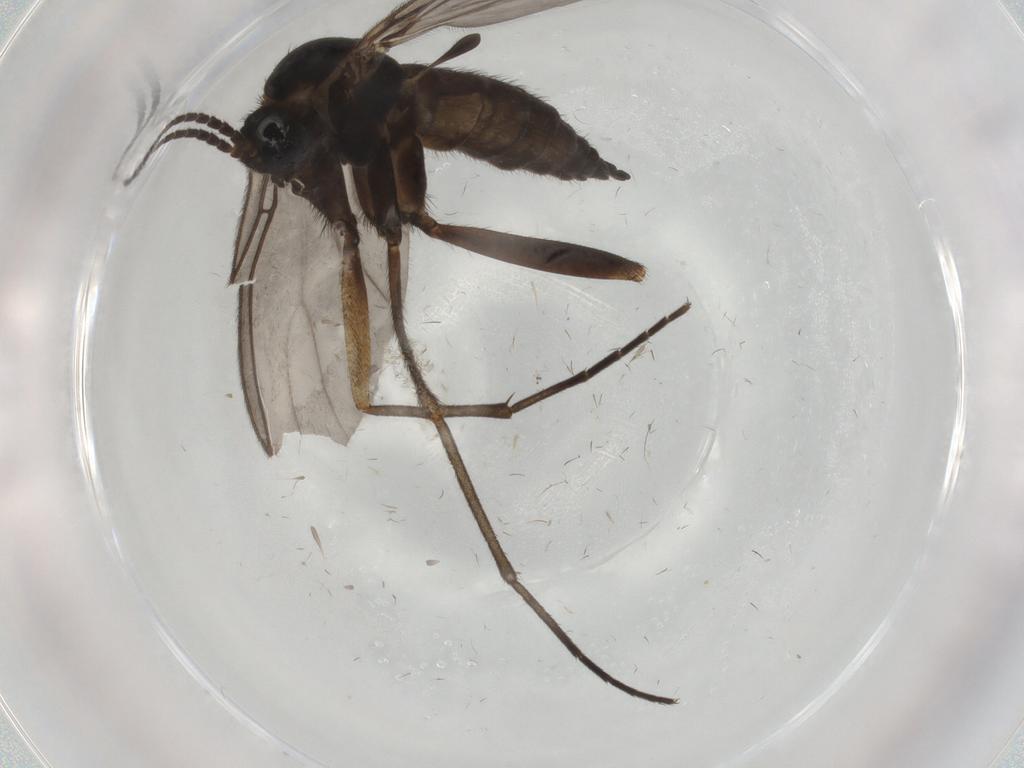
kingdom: Animalia
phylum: Arthropoda
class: Insecta
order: Diptera
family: Sciaridae
